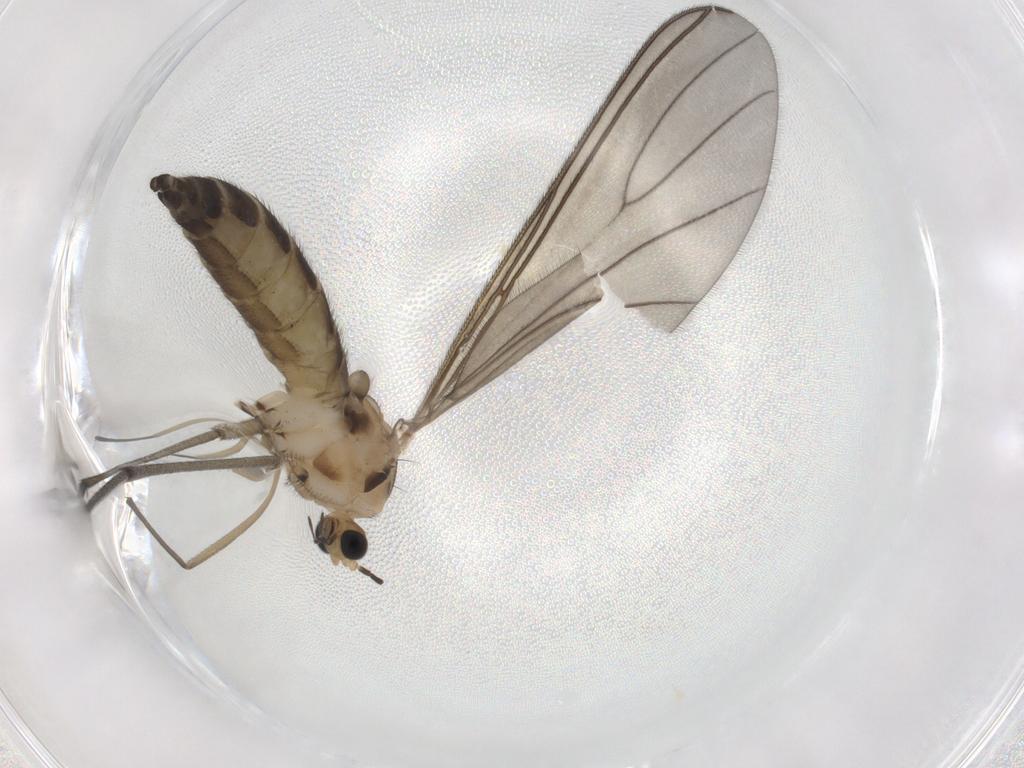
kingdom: Animalia
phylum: Arthropoda
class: Insecta
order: Diptera
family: Sciaridae
